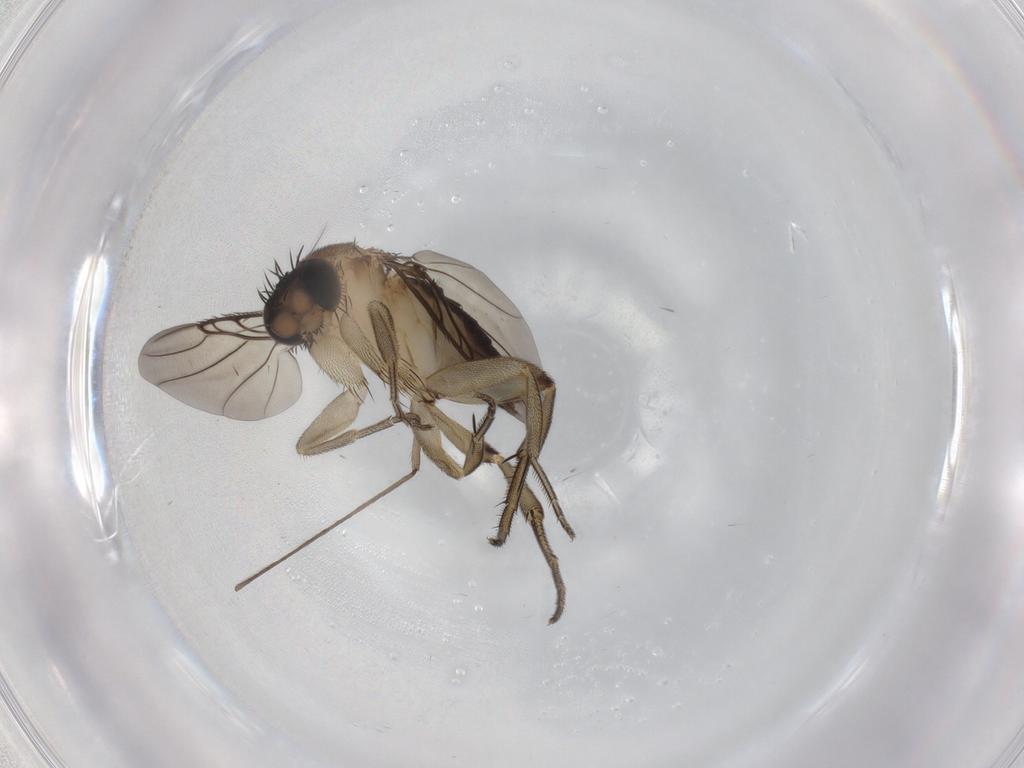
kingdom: Animalia
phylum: Arthropoda
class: Insecta
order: Diptera
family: Phoridae
